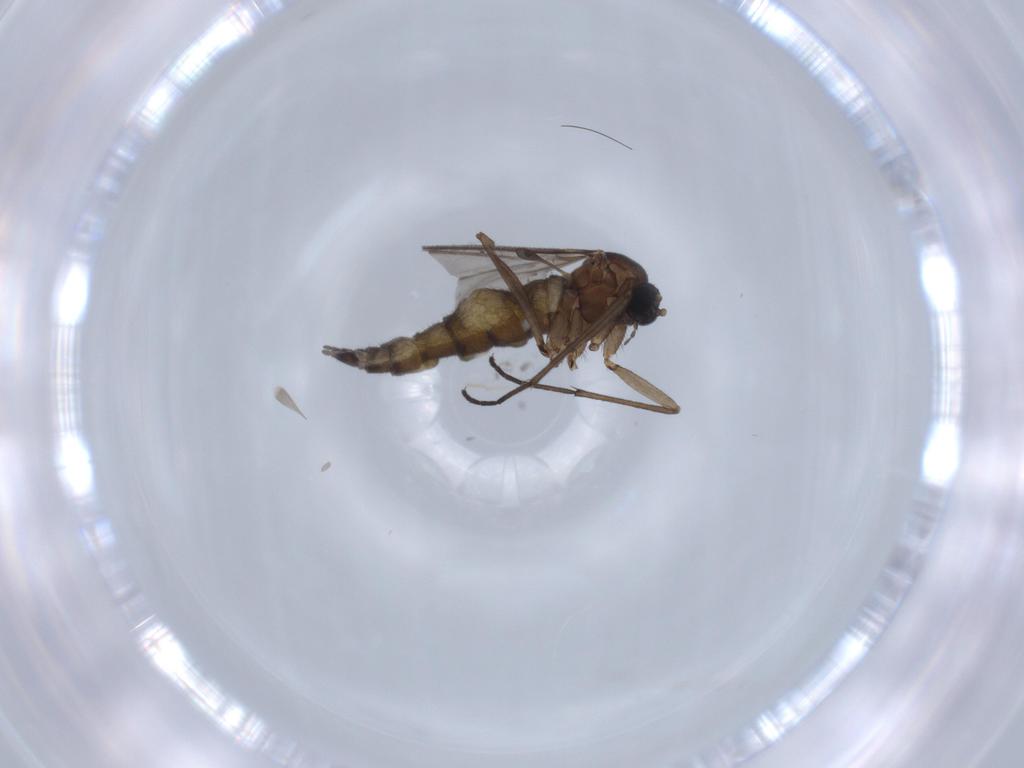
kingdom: Animalia
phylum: Arthropoda
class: Insecta
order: Diptera
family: Sciaridae
